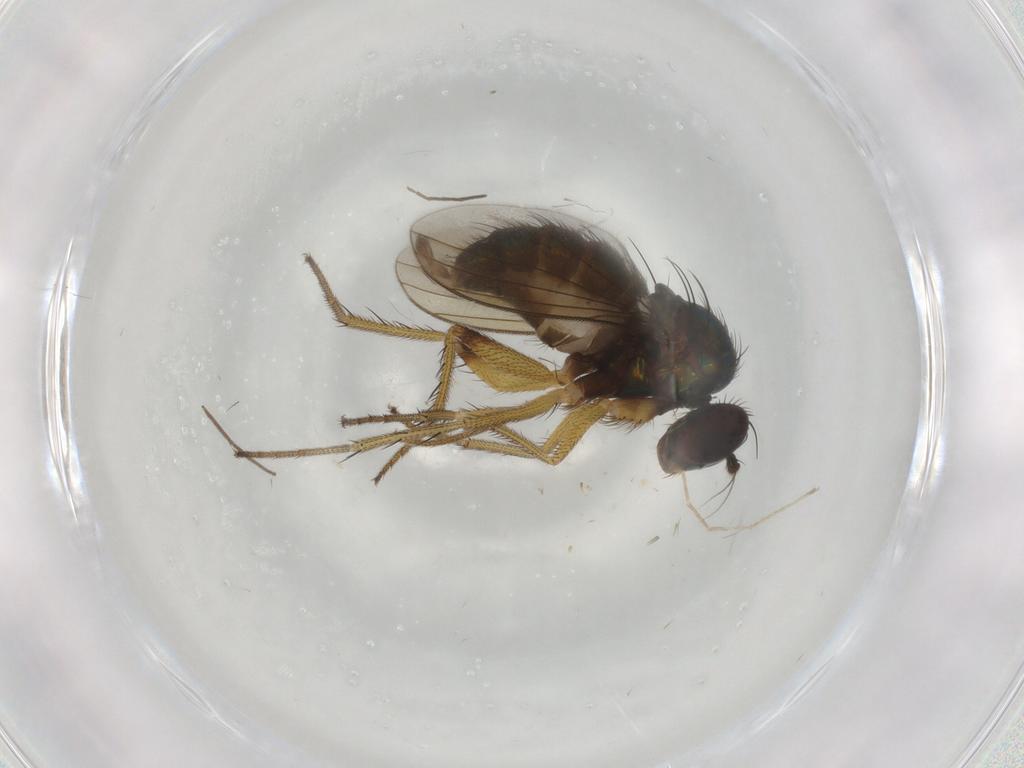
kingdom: Animalia
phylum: Arthropoda
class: Insecta
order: Diptera
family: Dolichopodidae
